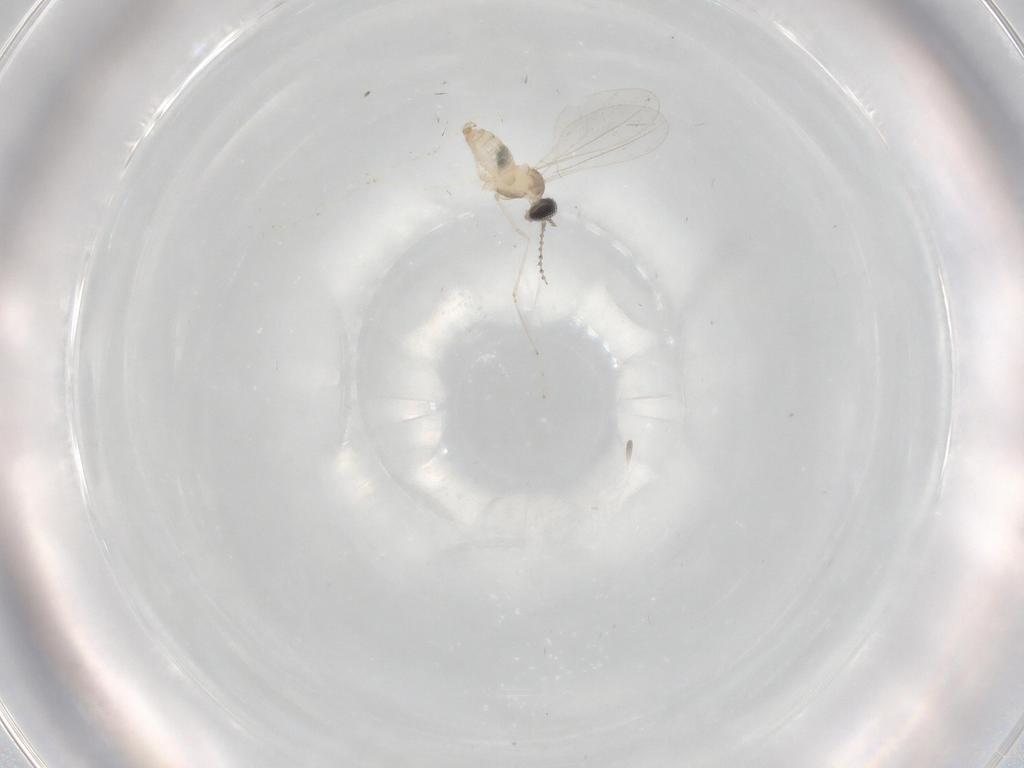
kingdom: Animalia
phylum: Arthropoda
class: Insecta
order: Diptera
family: Cecidomyiidae
